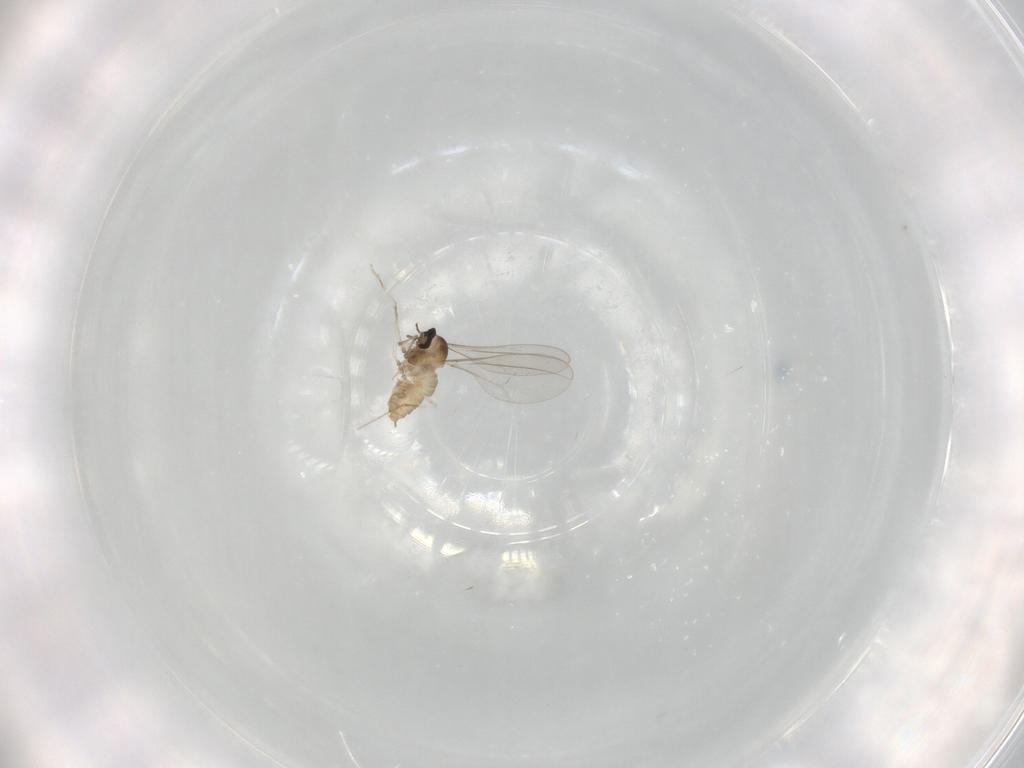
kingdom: Animalia
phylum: Arthropoda
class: Insecta
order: Diptera
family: Cecidomyiidae
